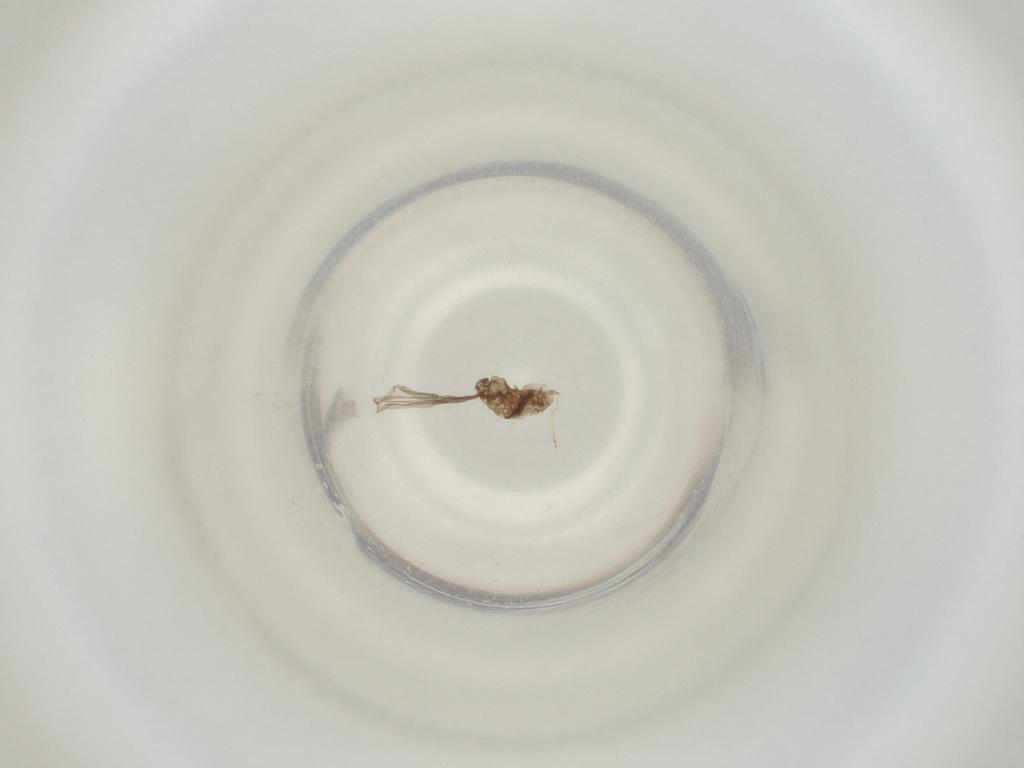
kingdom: Animalia
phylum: Arthropoda
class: Insecta
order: Diptera
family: Cecidomyiidae
